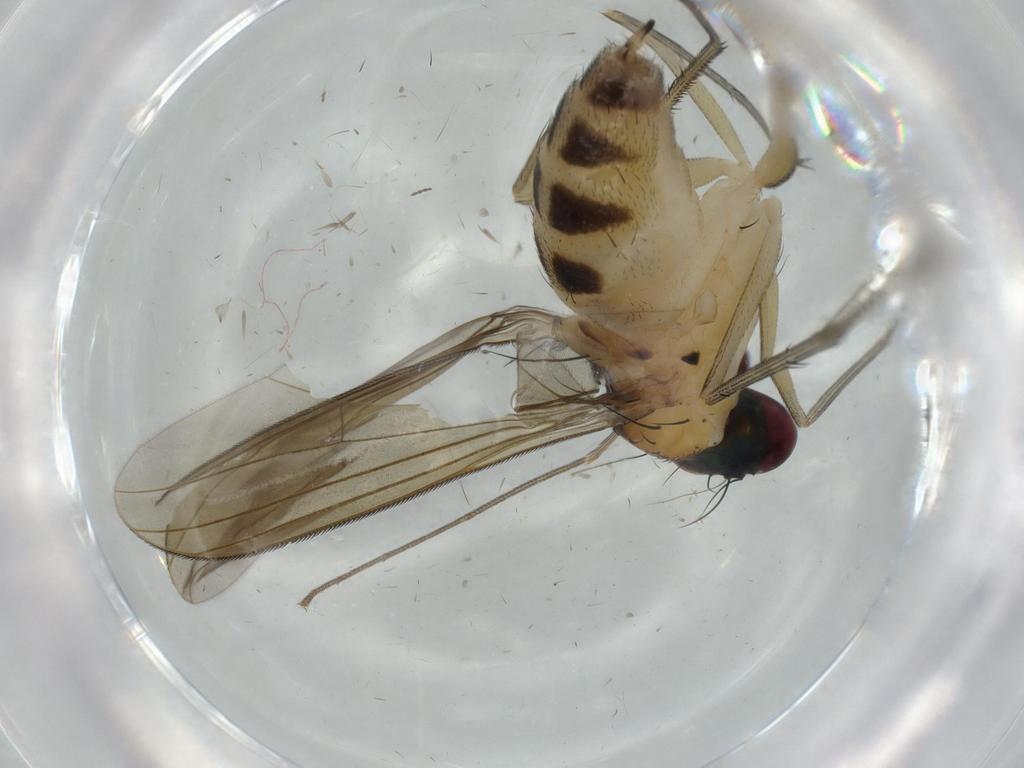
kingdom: Animalia
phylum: Arthropoda
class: Insecta
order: Diptera
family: Dolichopodidae
